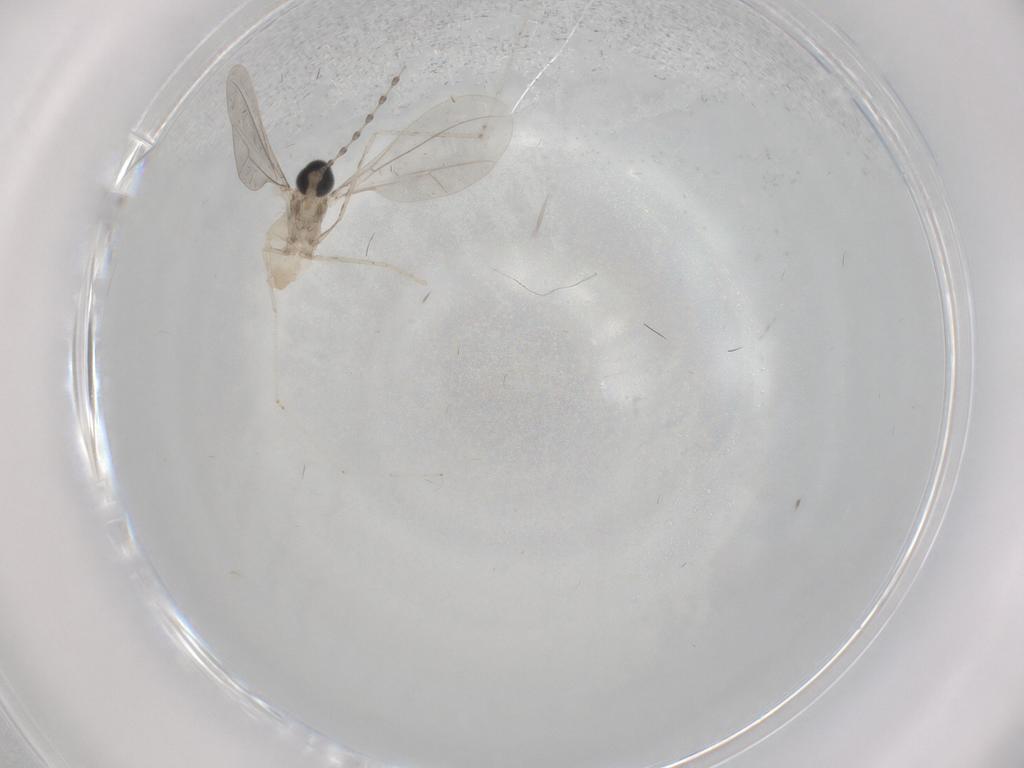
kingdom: Animalia
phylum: Arthropoda
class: Insecta
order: Diptera
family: Cecidomyiidae
